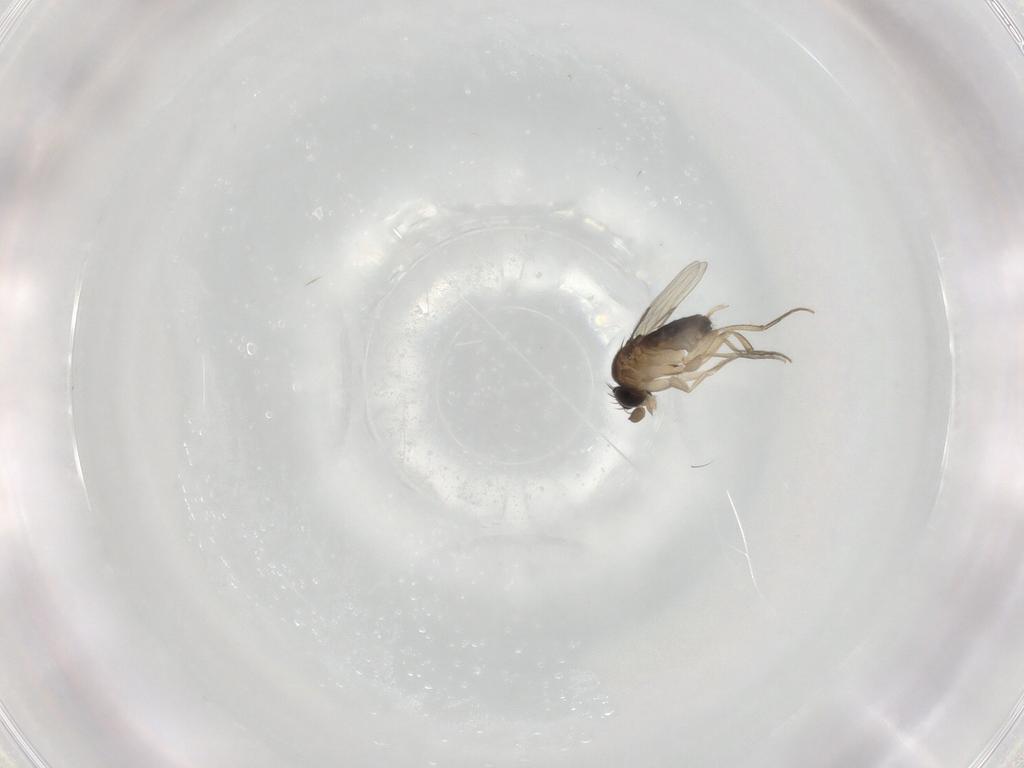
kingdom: Animalia
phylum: Arthropoda
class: Insecta
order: Diptera
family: Phoridae
